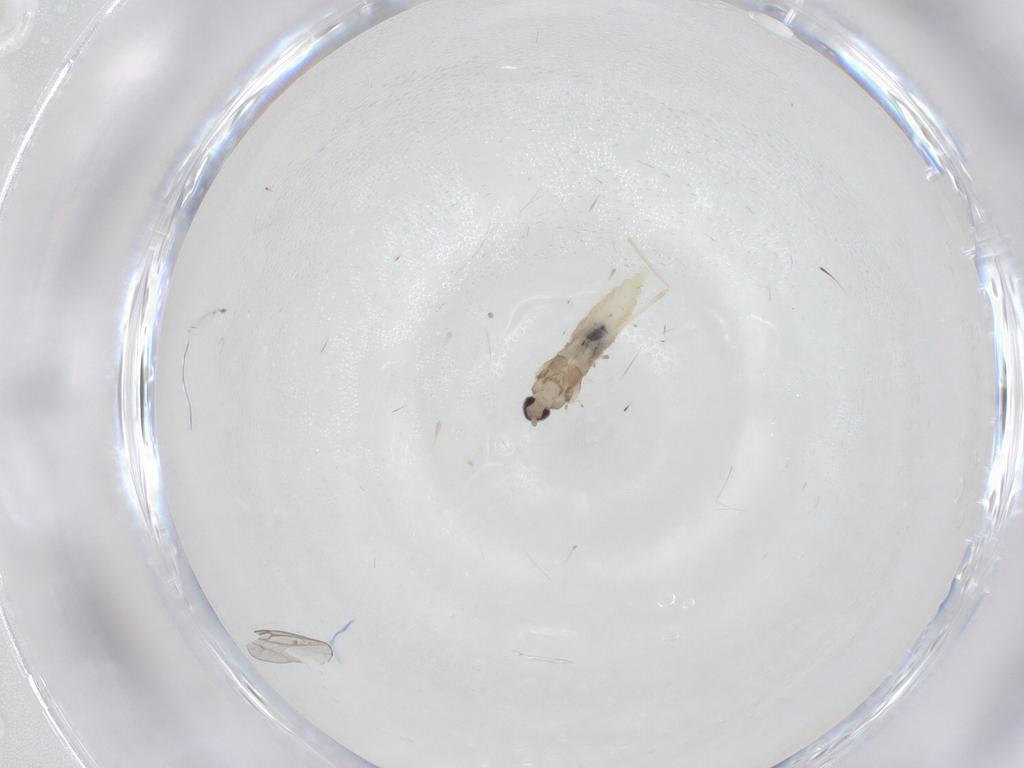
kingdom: Animalia
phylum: Arthropoda
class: Insecta
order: Diptera
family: Cecidomyiidae
